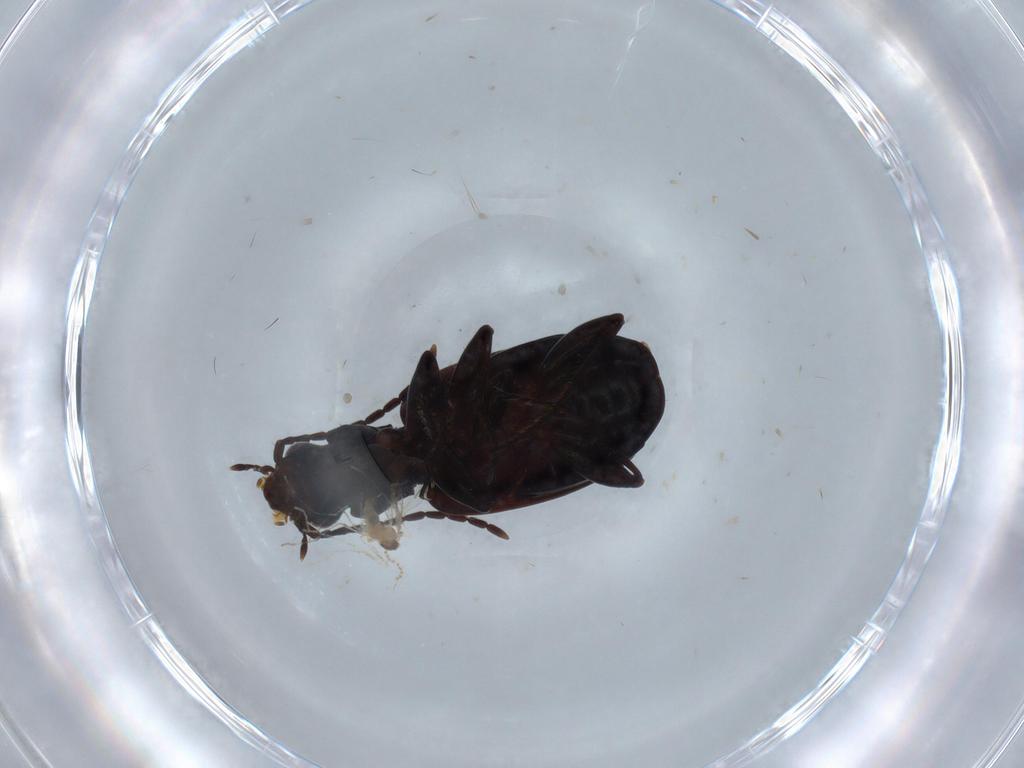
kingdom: Animalia
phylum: Arthropoda
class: Insecta
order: Coleoptera
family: Carabidae
